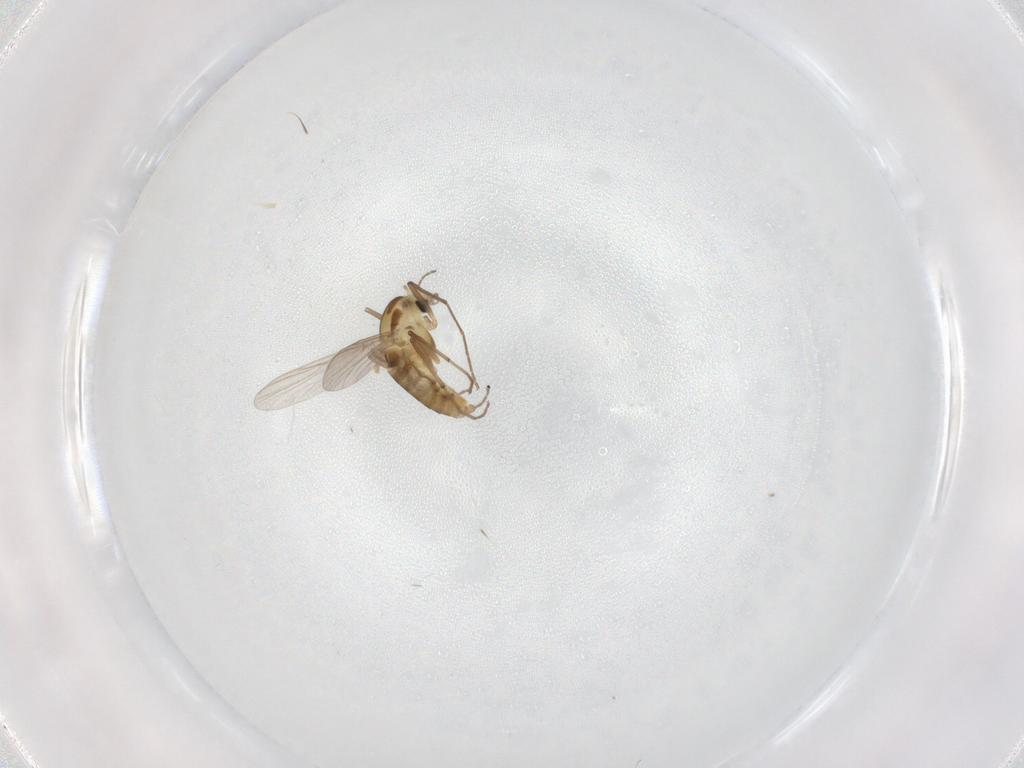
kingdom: Animalia
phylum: Arthropoda
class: Insecta
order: Diptera
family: Chironomidae
